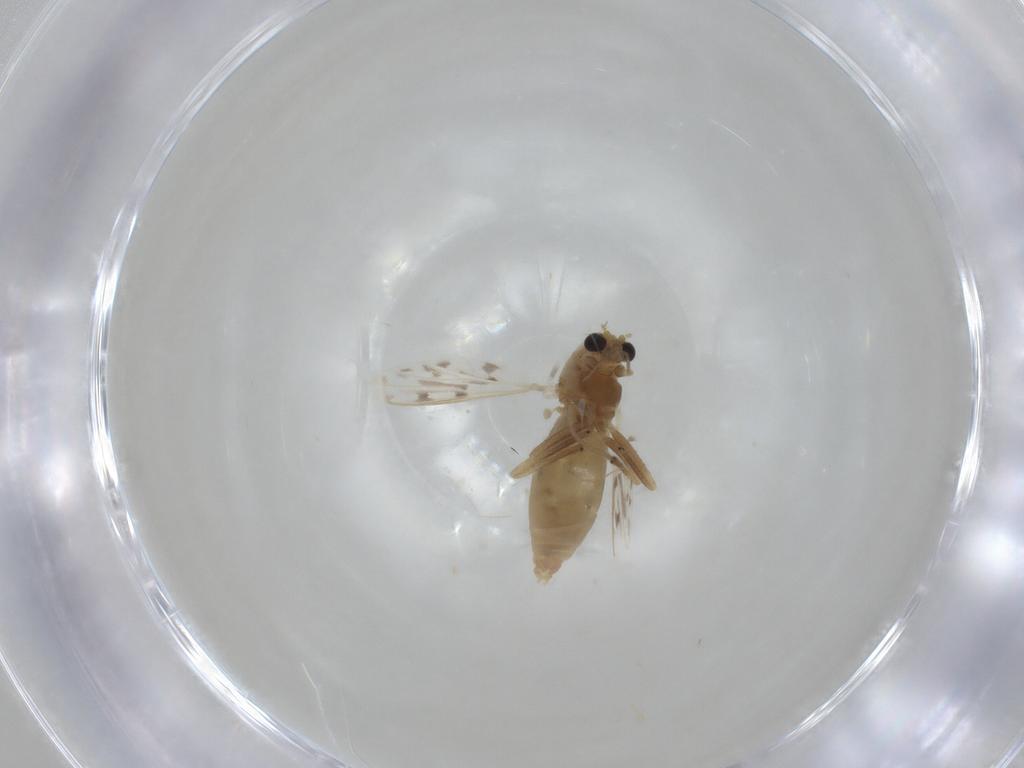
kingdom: Animalia
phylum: Arthropoda
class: Insecta
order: Diptera
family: Chironomidae
